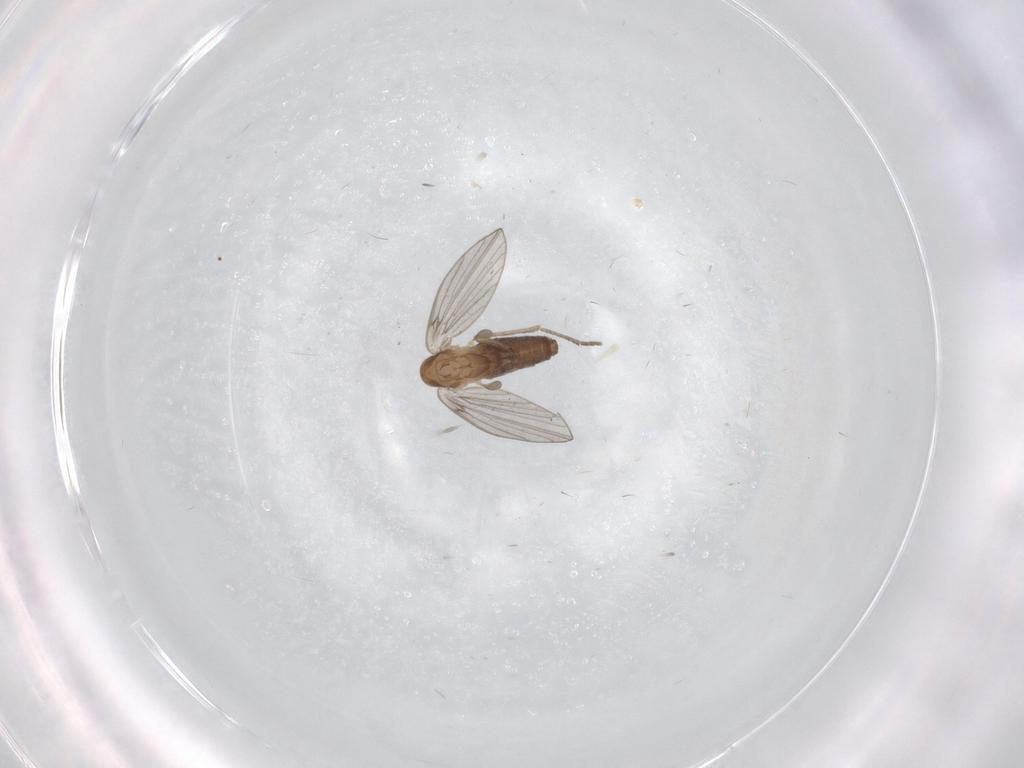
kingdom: Animalia
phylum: Arthropoda
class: Insecta
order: Diptera
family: Psychodidae
